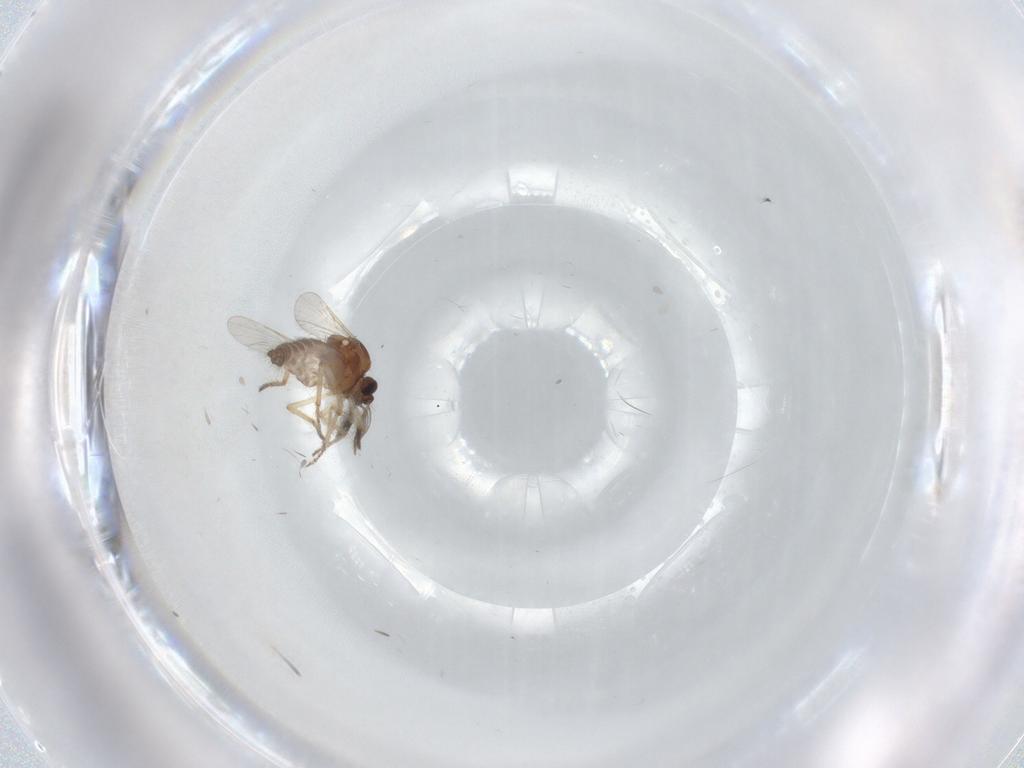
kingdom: Animalia
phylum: Arthropoda
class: Insecta
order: Diptera
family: Ceratopogonidae
